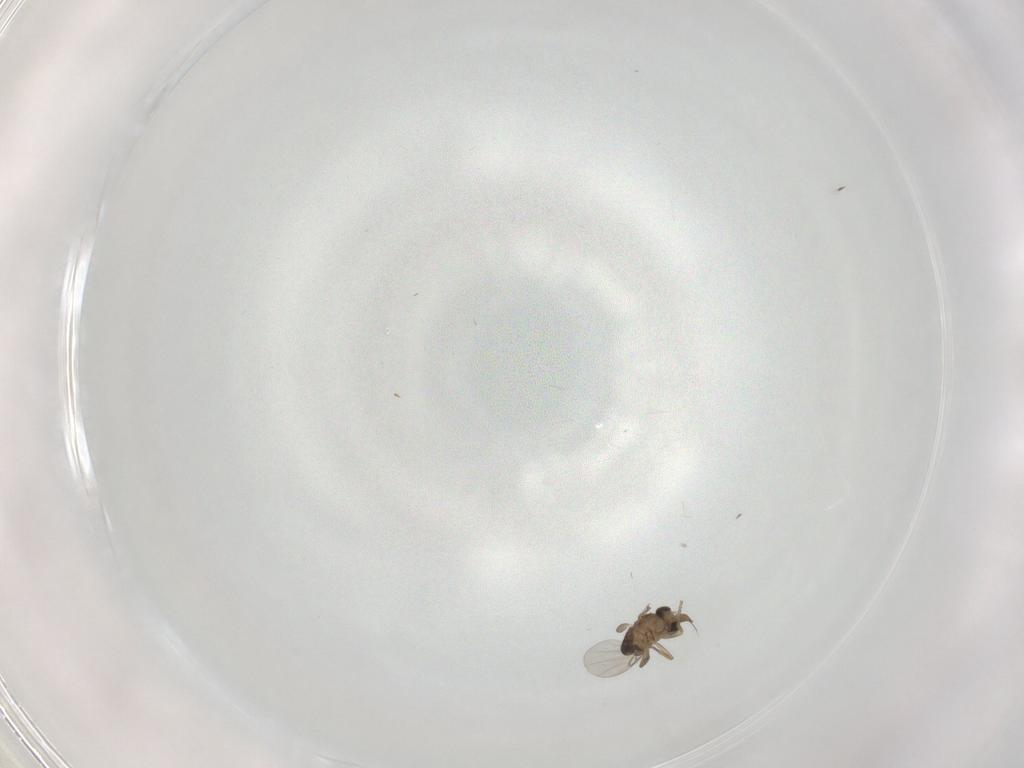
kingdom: Animalia
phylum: Arthropoda
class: Insecta
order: Diptera
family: Phoridae
